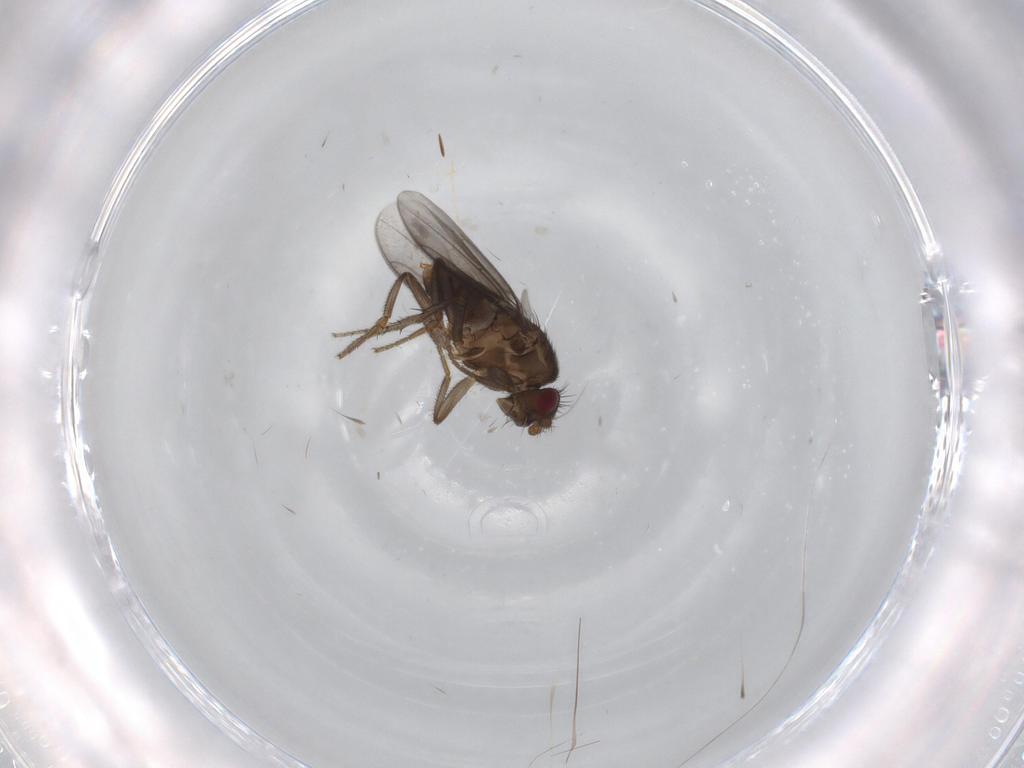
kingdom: Animalia
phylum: Arthropoda
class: Insecta
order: Diptera
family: Sphaeroceridae
